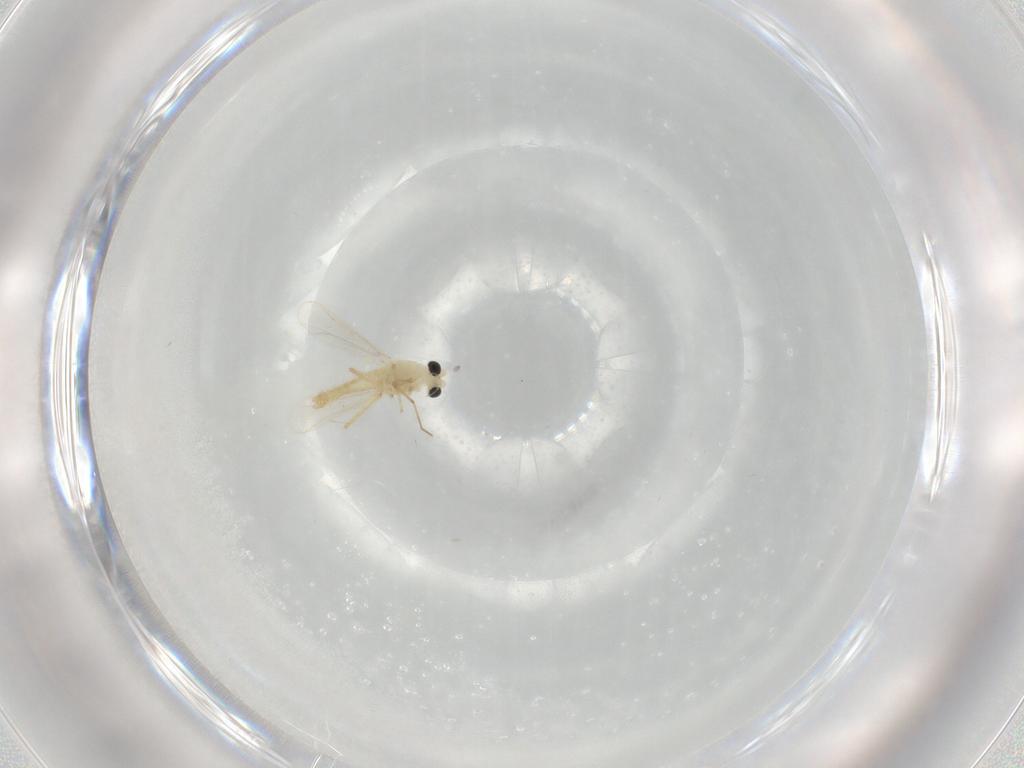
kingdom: Animalia
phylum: Arthropoda
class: Insecta
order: Diptera
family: Chironomidae
